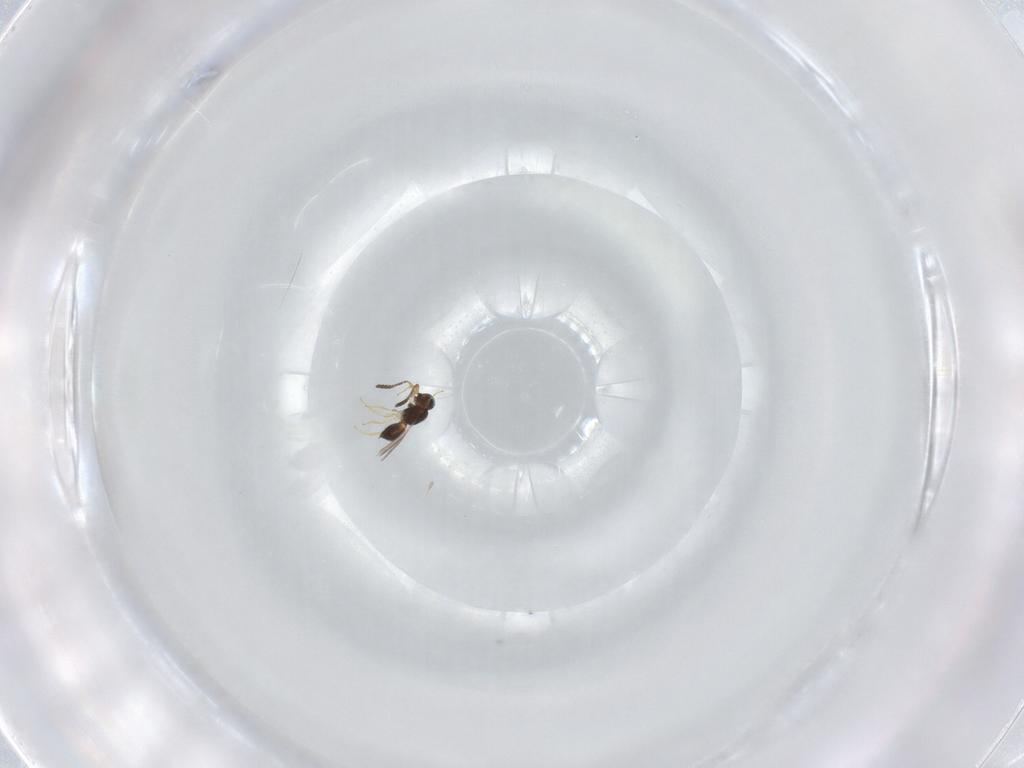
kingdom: Animalia
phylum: Arthropoda
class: Insecta
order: Hymenoptera
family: Scelionidae
